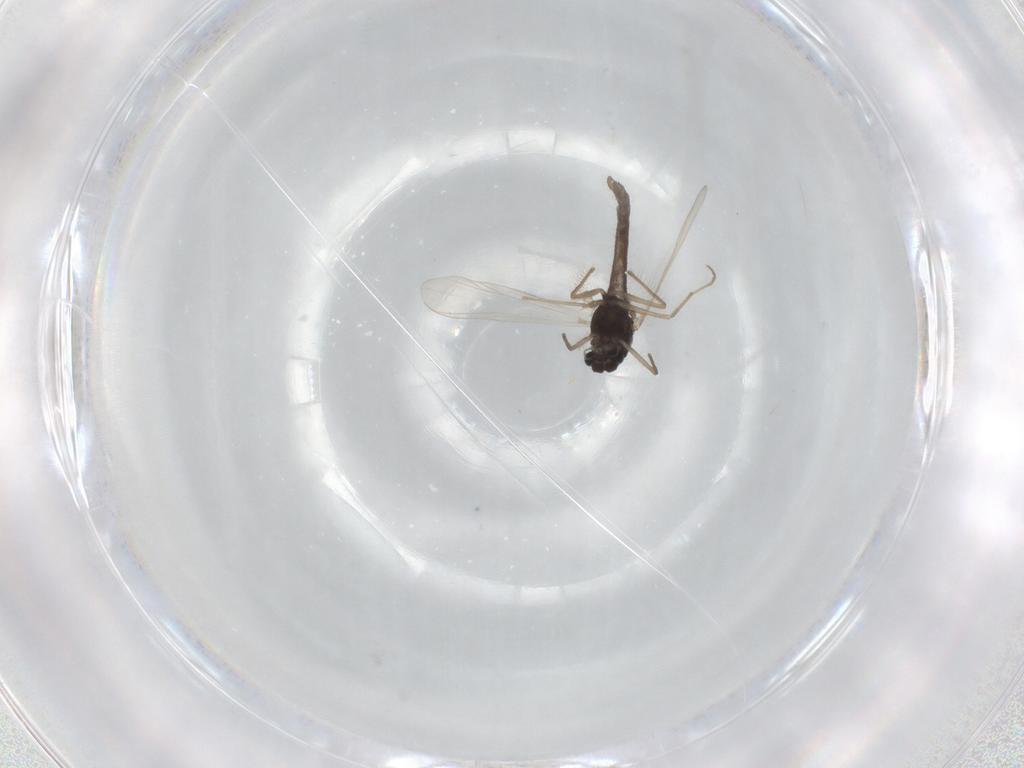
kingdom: Animalia
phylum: Arthropoda
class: Insecta
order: Diptera
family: Chironomidae
